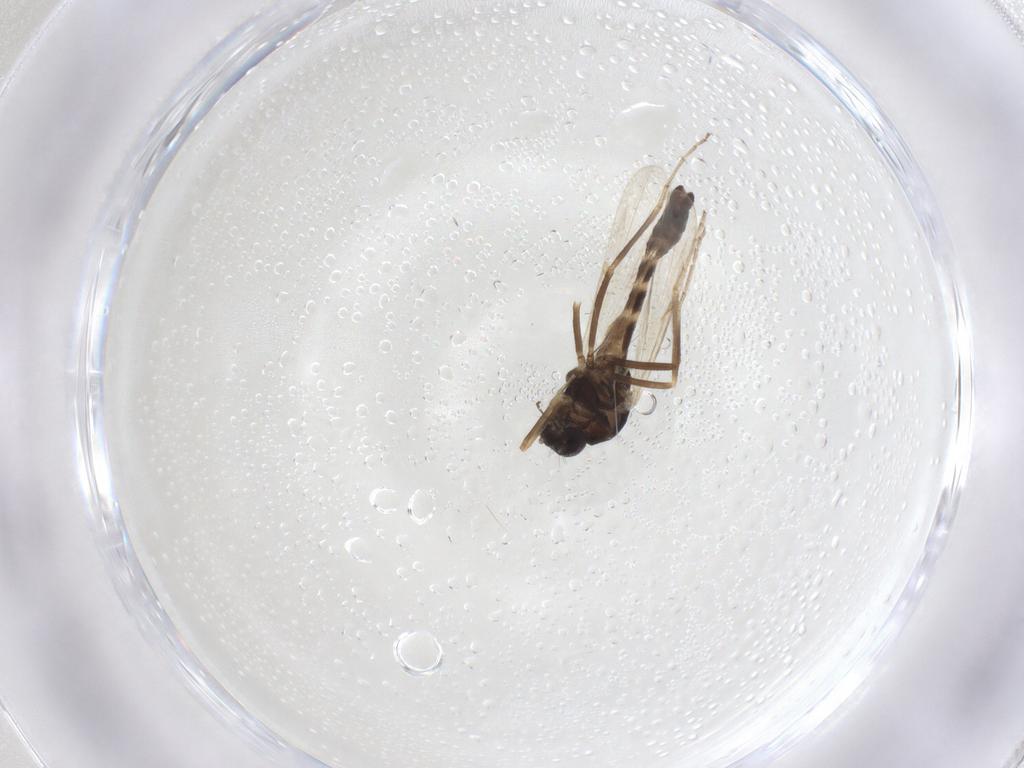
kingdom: Animalia
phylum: Arthropoda
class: Insecta
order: Diptera
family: Ceratopogonidae
